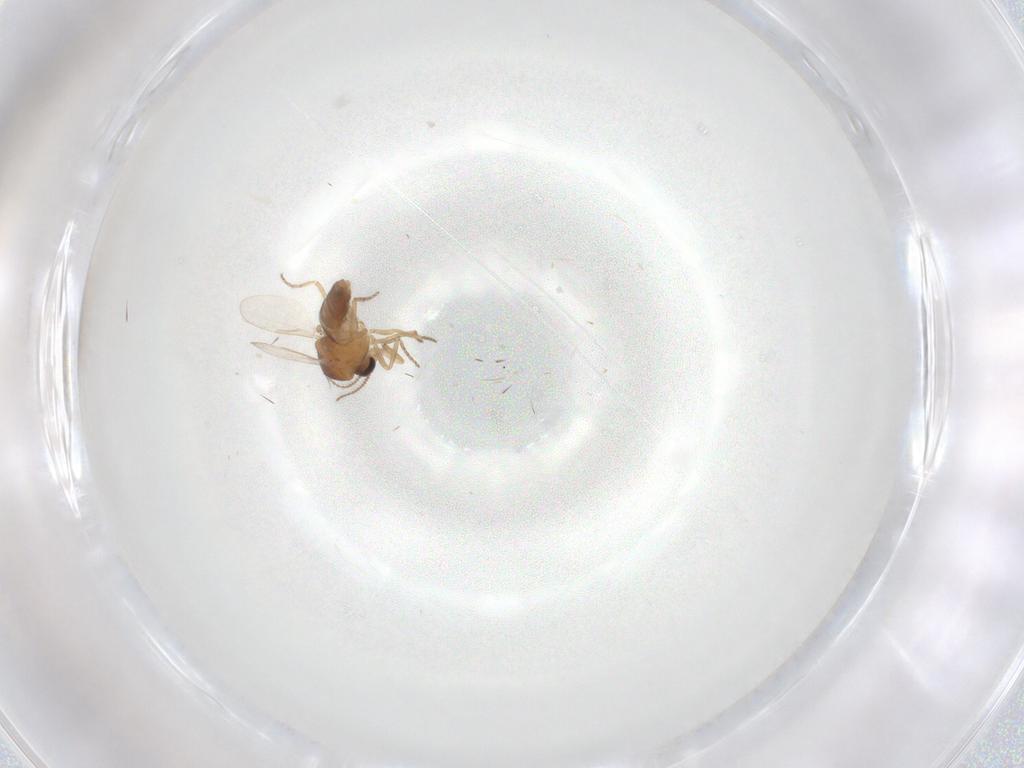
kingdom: Animalia
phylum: Arthropoda
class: Insecta
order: Diptera
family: Ceratopogonidae
